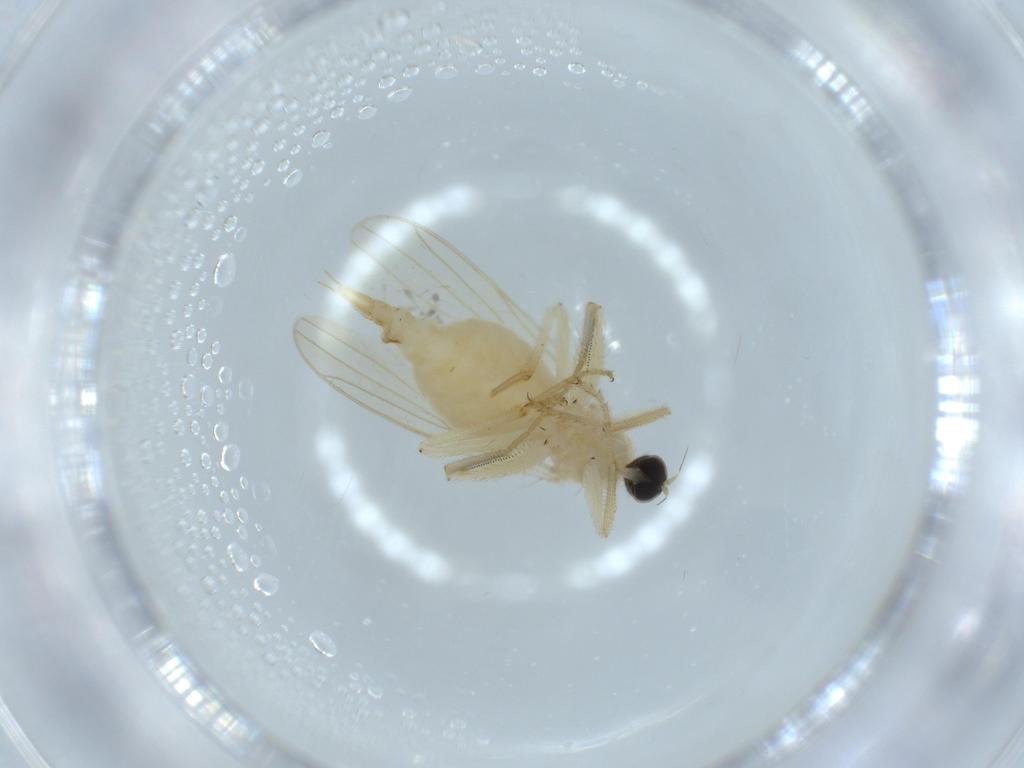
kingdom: Animalia
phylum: Arthropoda
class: Insecta
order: Diptera
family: Hybotidae
